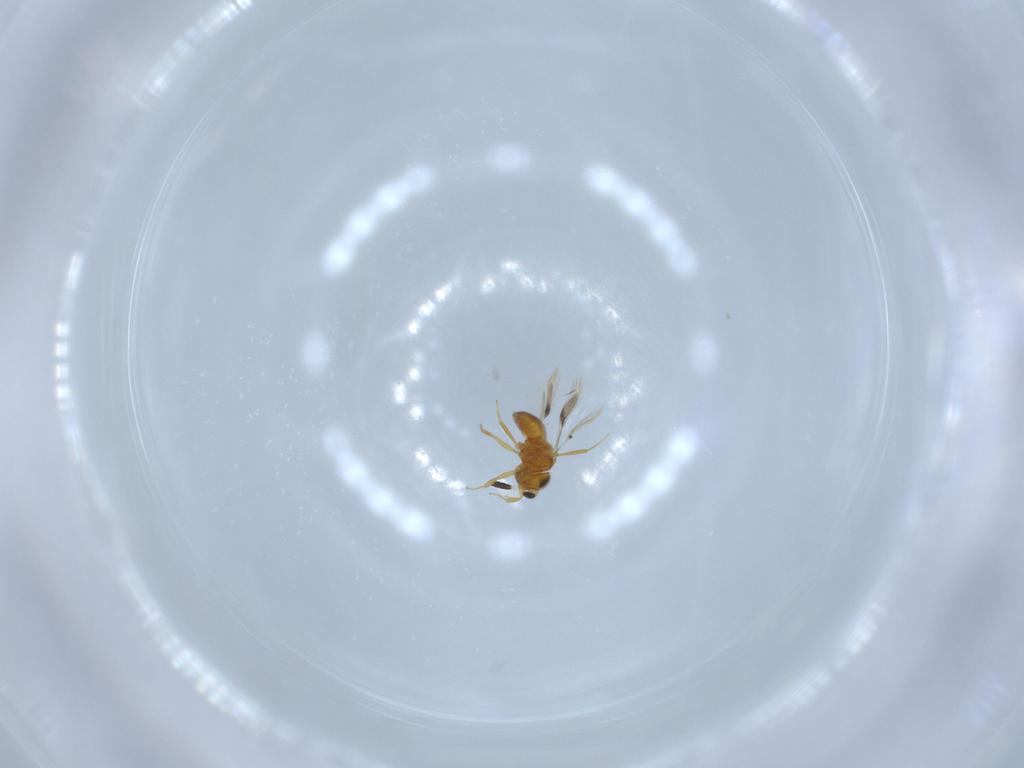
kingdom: Animalia
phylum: Arthropoda
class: Insecta
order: Hymenoptera
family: Scelionidae
